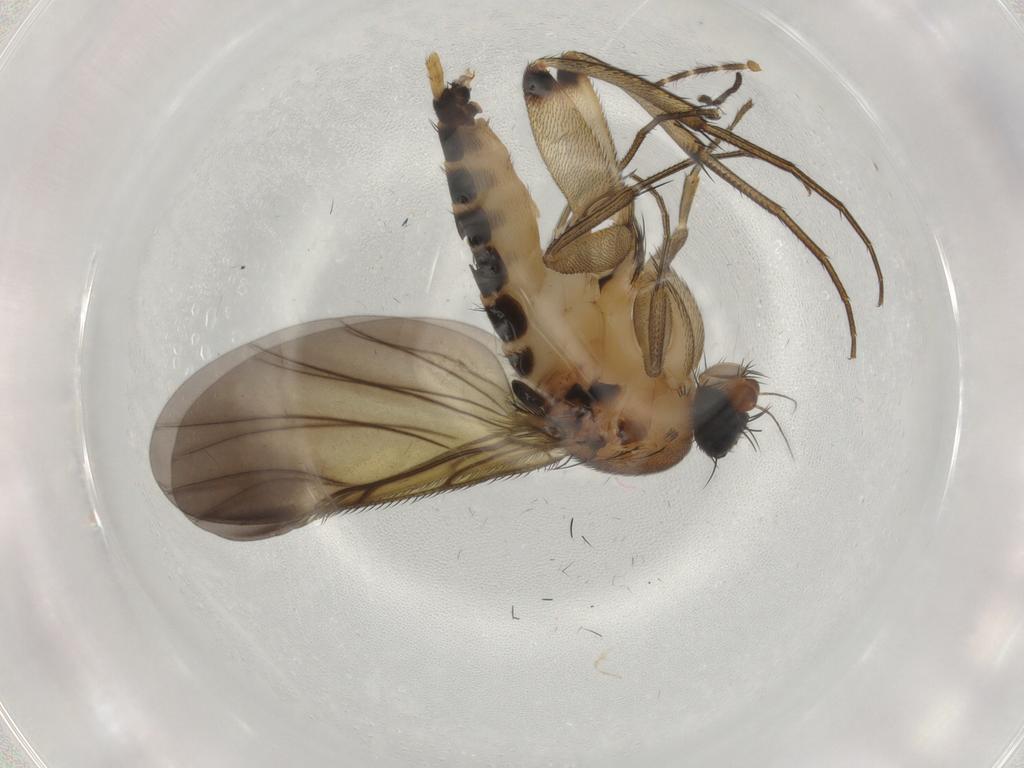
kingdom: Animalia
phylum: Arthropoda
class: Insecta
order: Diptera
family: Limoniidae
